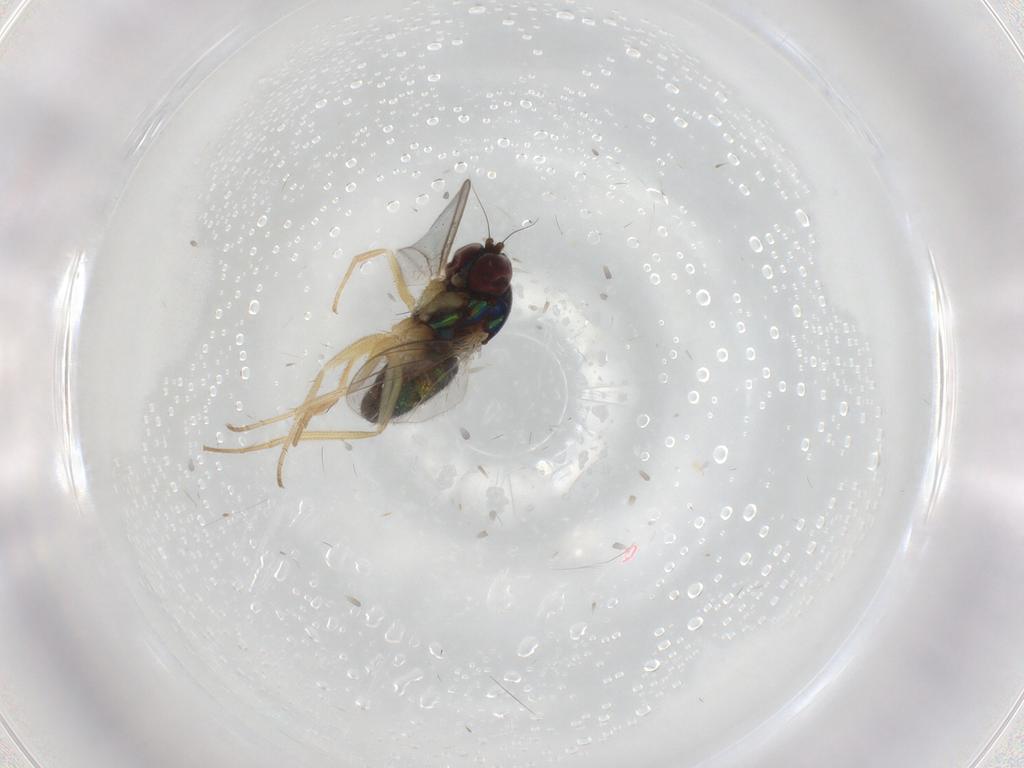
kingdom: Animalia
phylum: Arthropoda
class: Insecta
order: Diptera
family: Dolichopodidae
